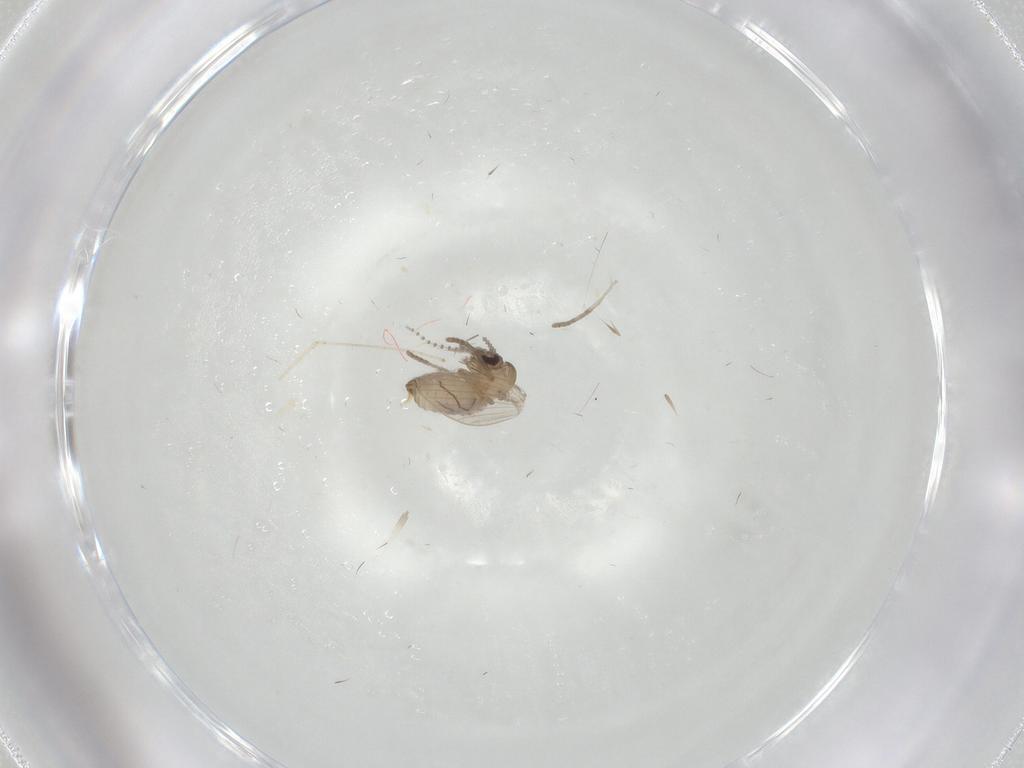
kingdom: Animalia
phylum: Arthropoda
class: Insecta
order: Diptera
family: Psychodidae
